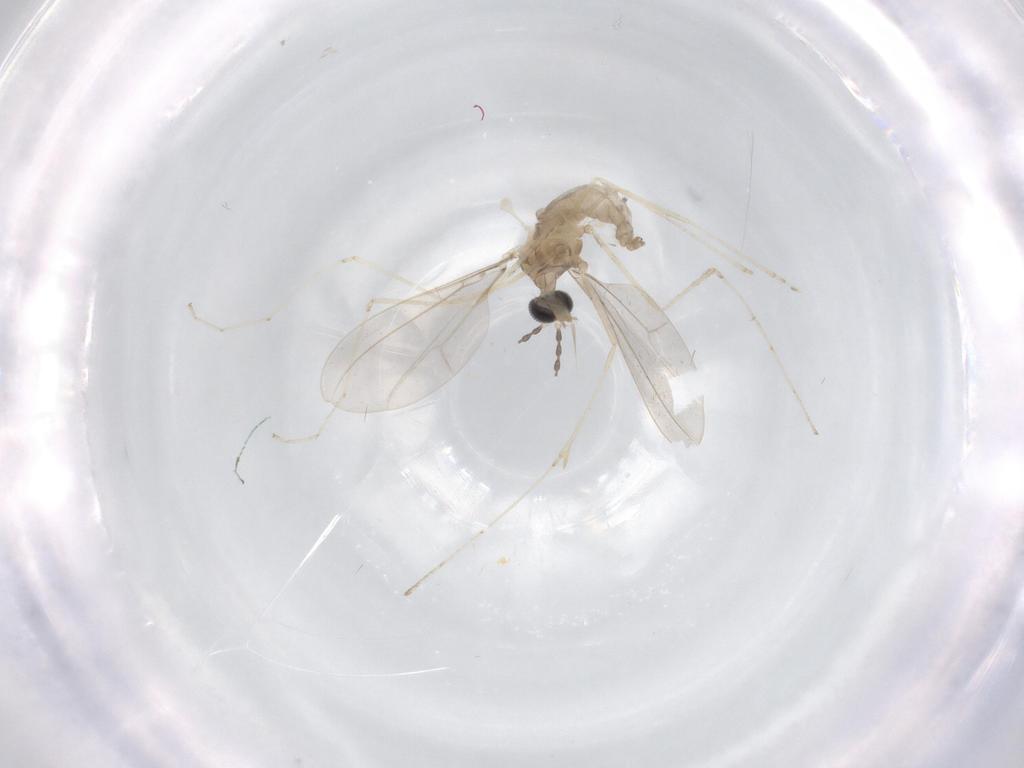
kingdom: Animalia
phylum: Arthropoda
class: Insecta
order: Diptera
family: Cecidomyiidae
